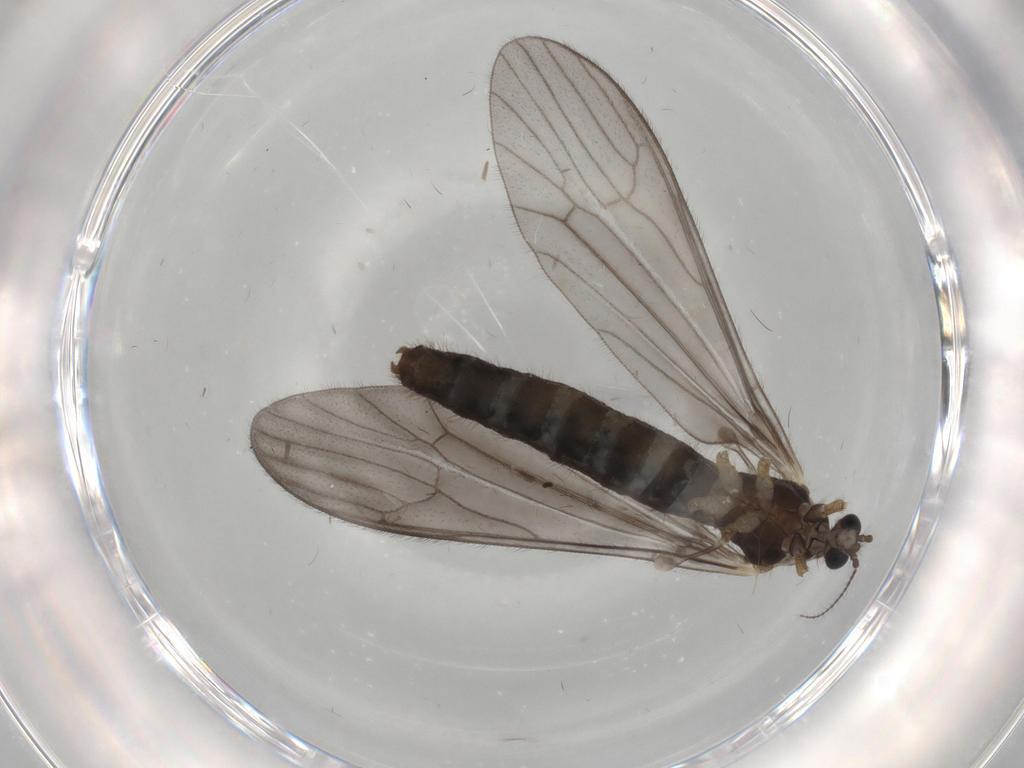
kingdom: Animalia
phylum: Arthropoda
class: Insecta
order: Diptera
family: Limoniidae
